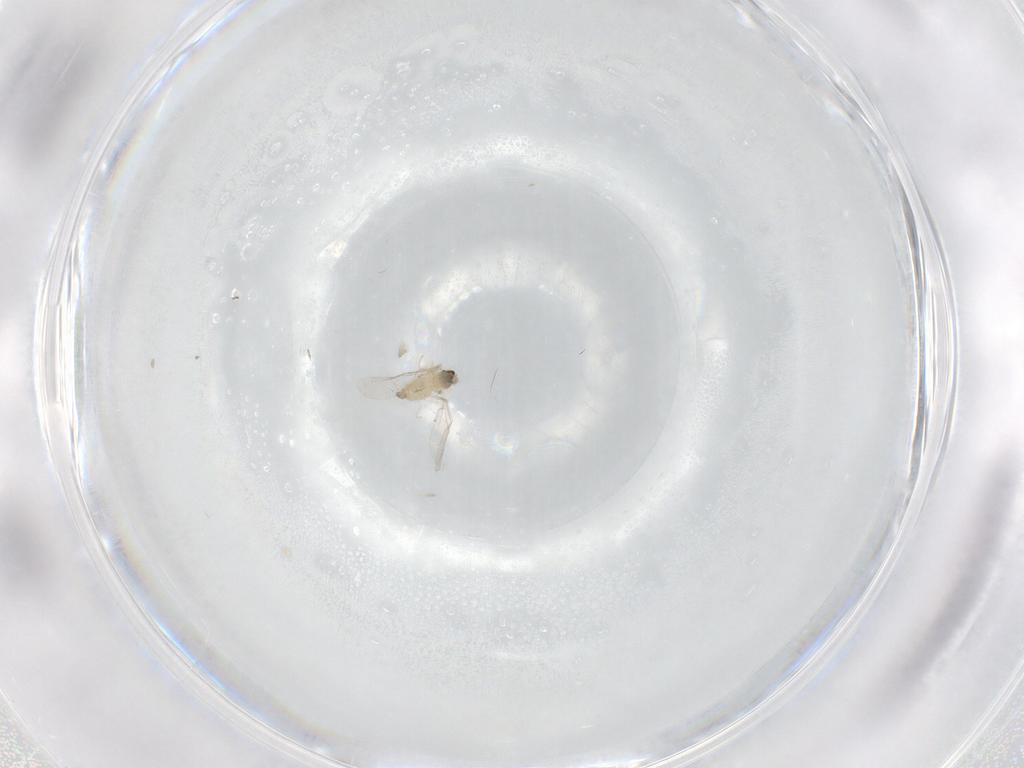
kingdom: Animalia
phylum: Arthropoda
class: Insecta
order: Diptera
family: Cecidomyiidae
